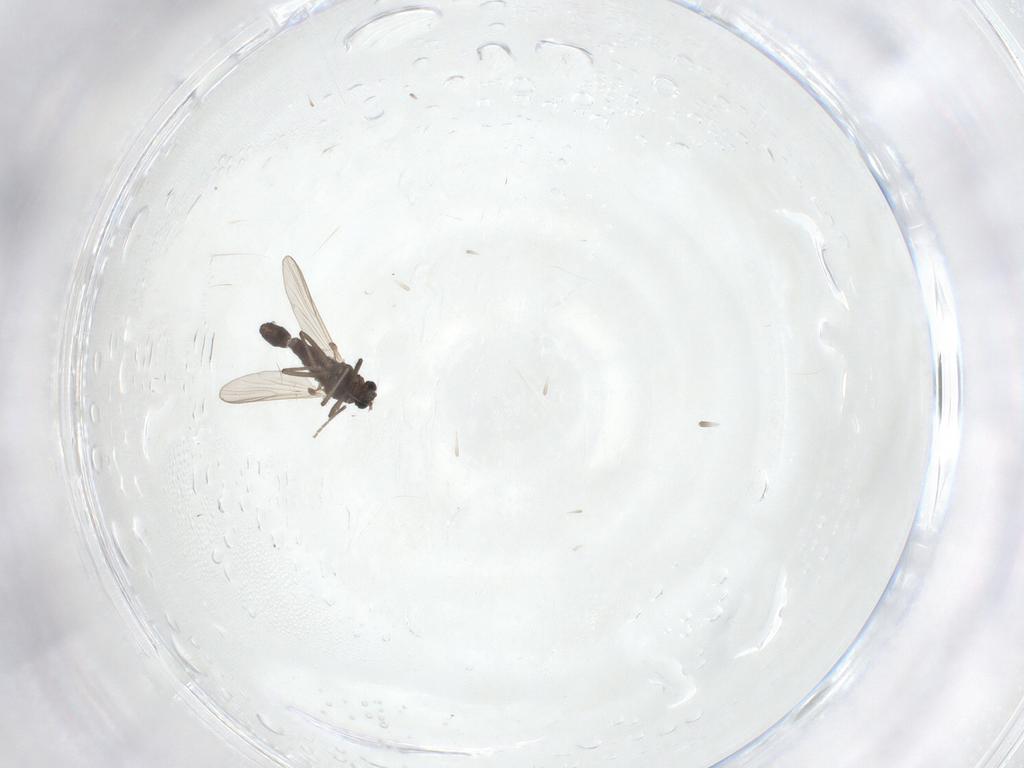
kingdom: Animalia
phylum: Arthropoda
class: Insecta
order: Diptera
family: Chironomidae
